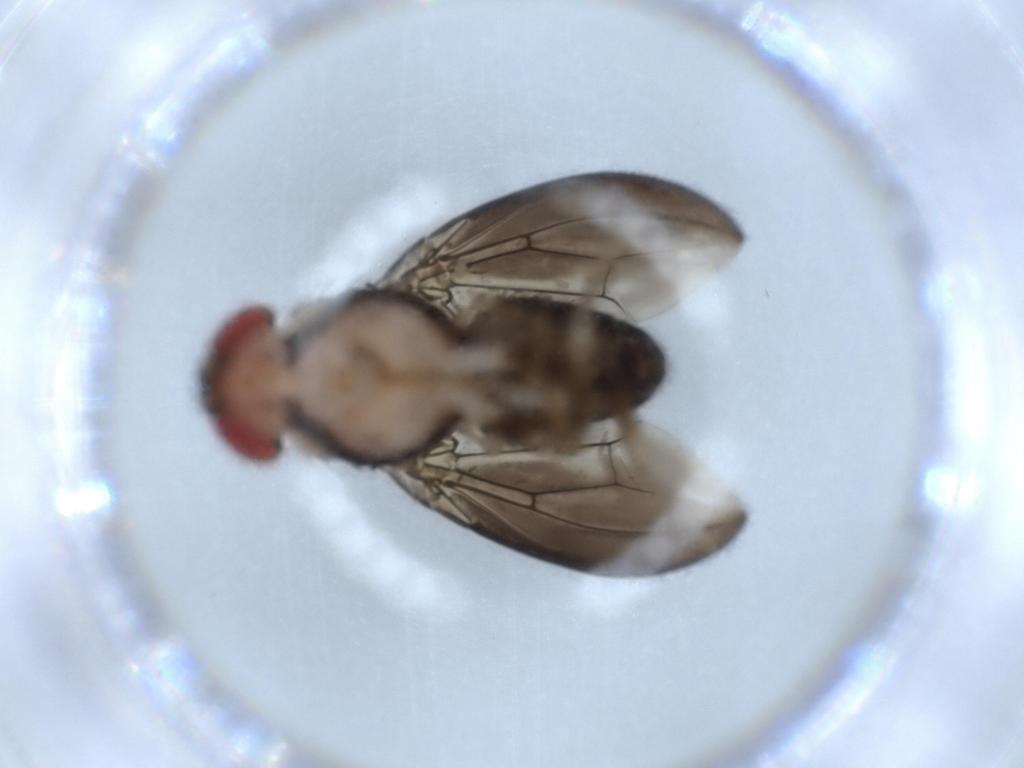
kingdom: Animalia
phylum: Arthropoda
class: Insecta
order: Diptera
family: Drosophilidae
